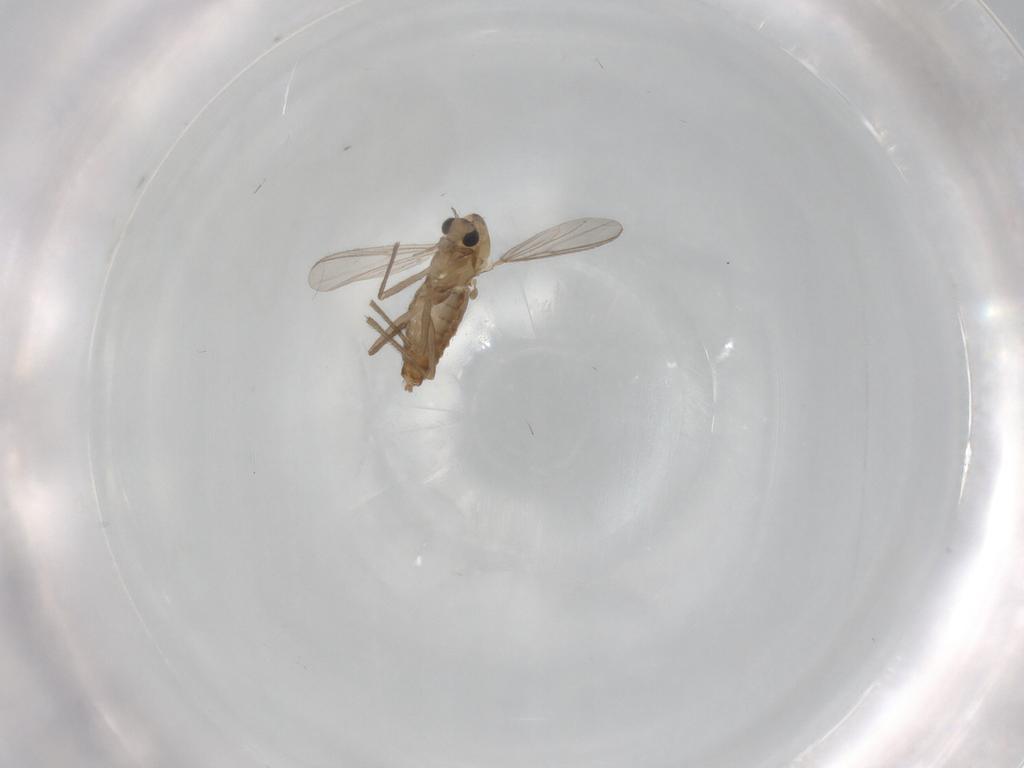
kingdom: Animalia
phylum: Arthropoda
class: Insecta
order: Diptera
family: Chironomidae
